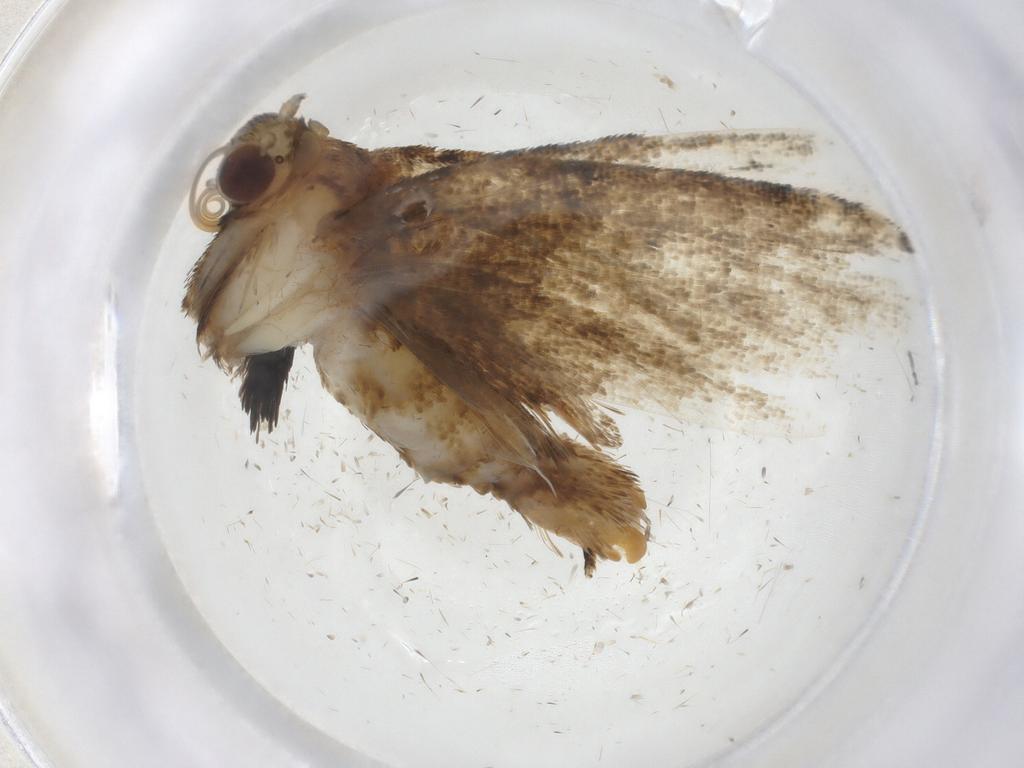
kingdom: Animalia
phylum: Arthropoda
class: Insecta
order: Lepidoptera
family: Erebidae
